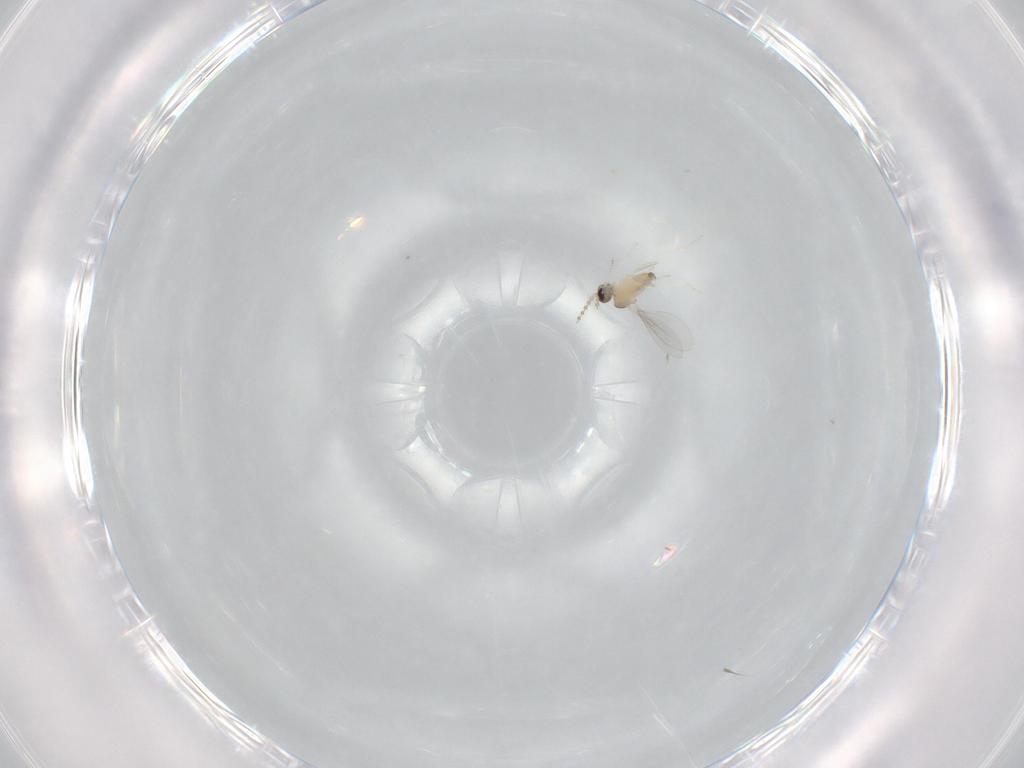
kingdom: Animalia
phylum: Arthropoda
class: Insecta
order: Diptera
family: Cecidomyiidae
